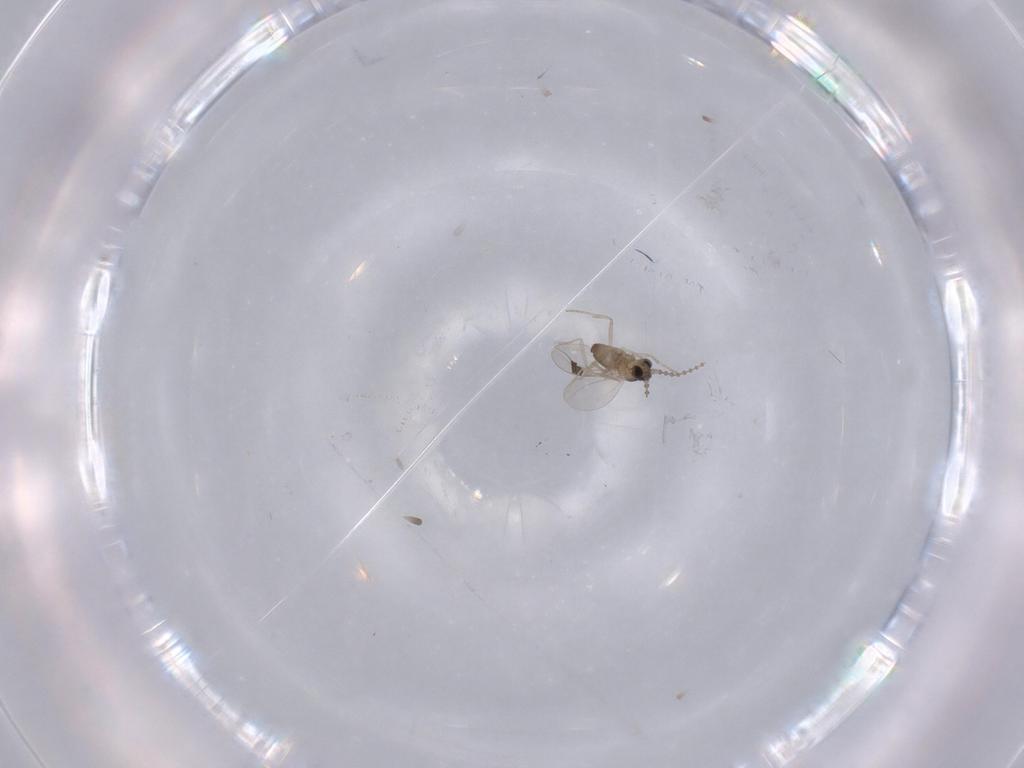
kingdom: Animalia
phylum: Arthropoda
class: Insecta
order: Diptera
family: Cecidomyiidae
